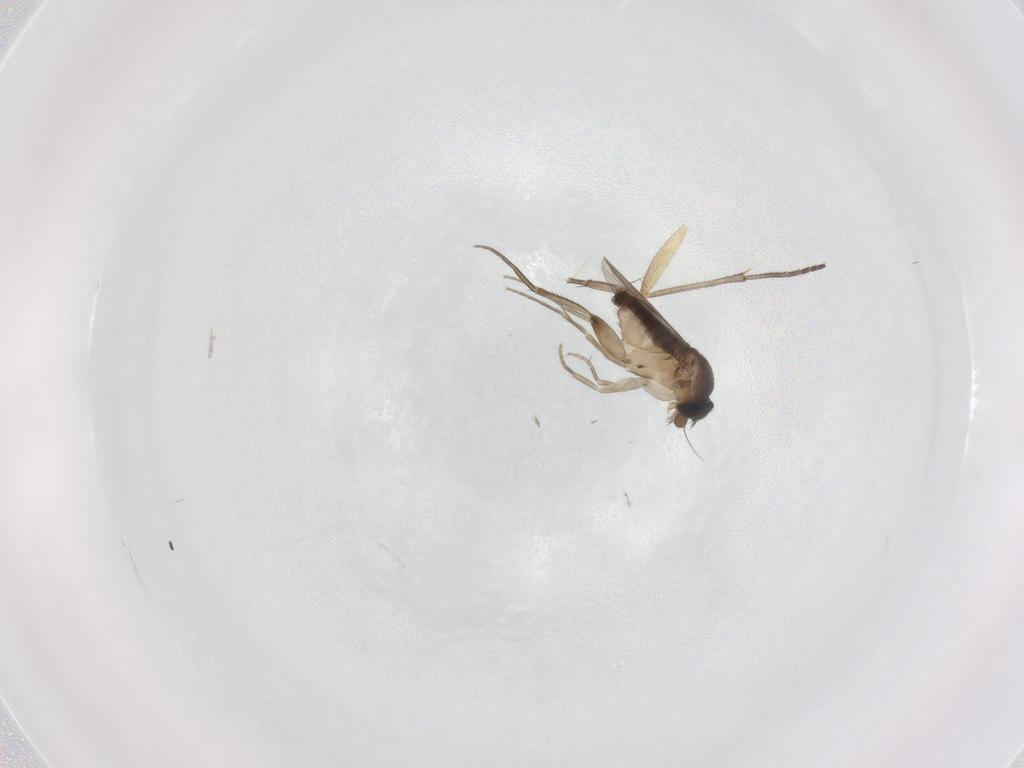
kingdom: Animalia
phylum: Arthropoda
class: Insecta
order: Diptera
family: Phoridae
